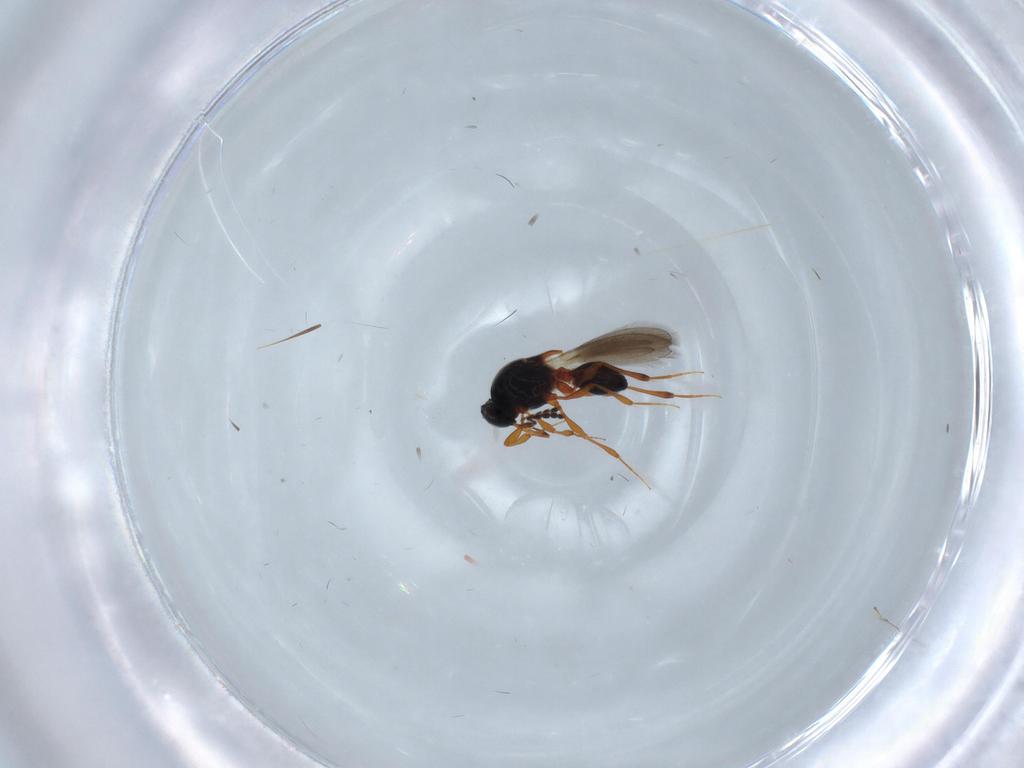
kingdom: Animalia
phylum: Arthropoda
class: Insecta
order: Hymenoptera
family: Platygastridae
